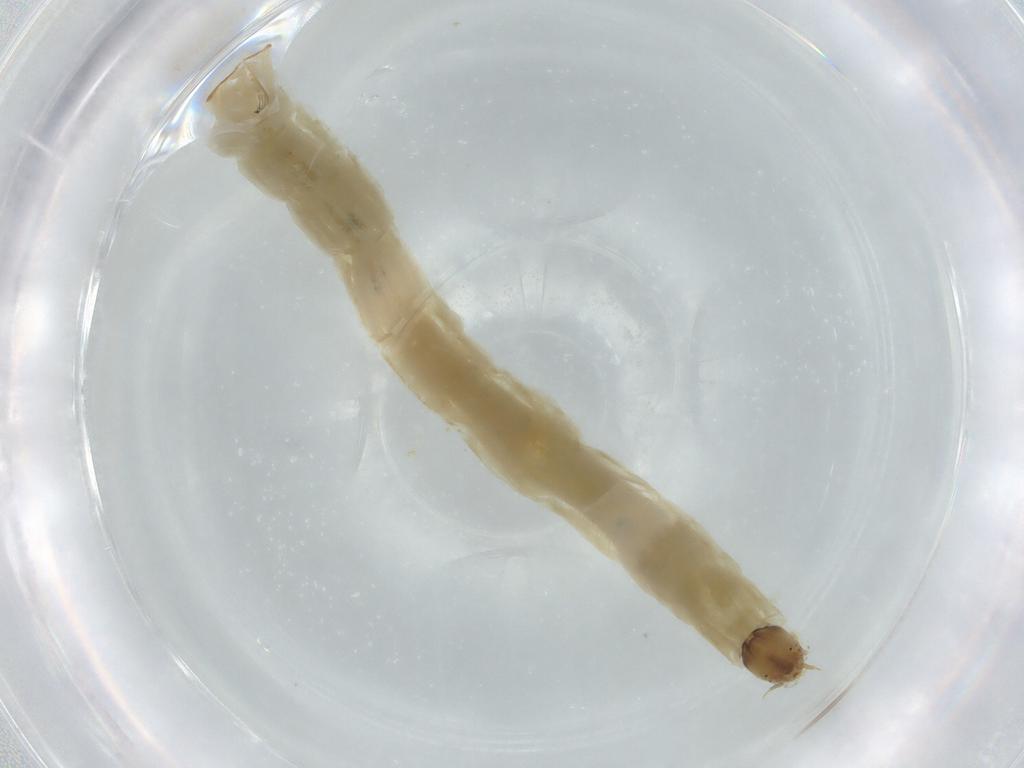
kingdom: Animalia
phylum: Arthropoda
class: Insecta
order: Diptera
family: Chironomidae
